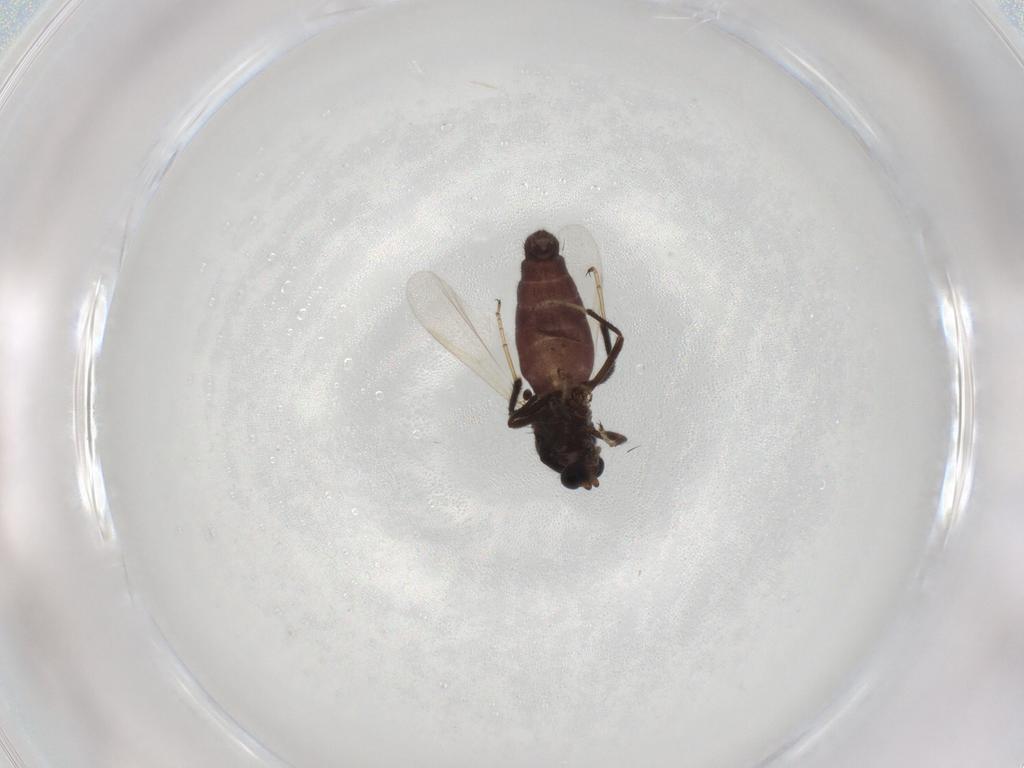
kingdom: Animalia
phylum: Arthropoda
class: Insecta
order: Diptera
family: Ceratopogonidae
